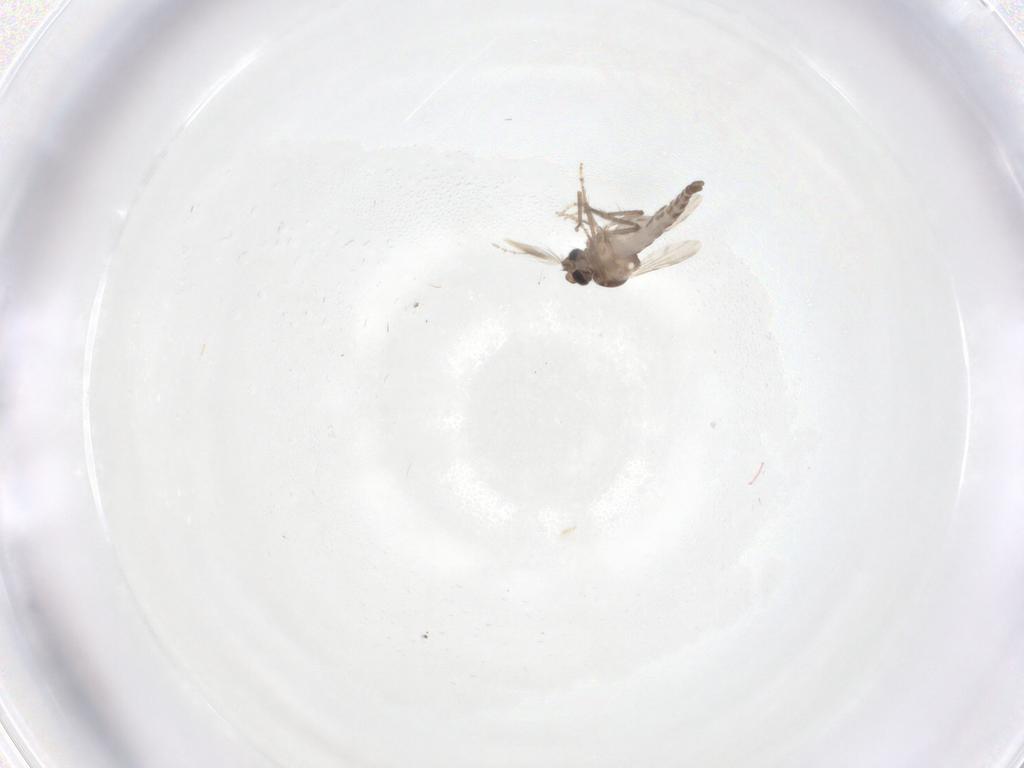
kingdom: Animalia
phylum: Arthropoda
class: Insecta
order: Diptera
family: Ceratopogonidae
